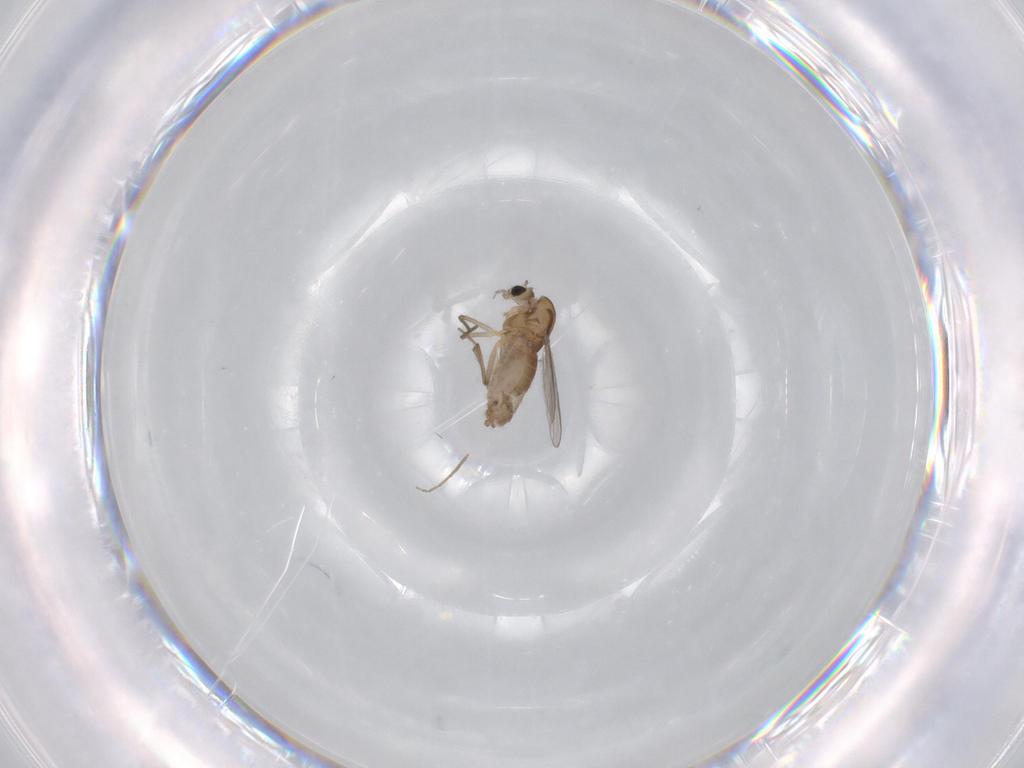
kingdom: Animalia
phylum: Arthropoda
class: Insecta
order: Diptera
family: Chironomidae
